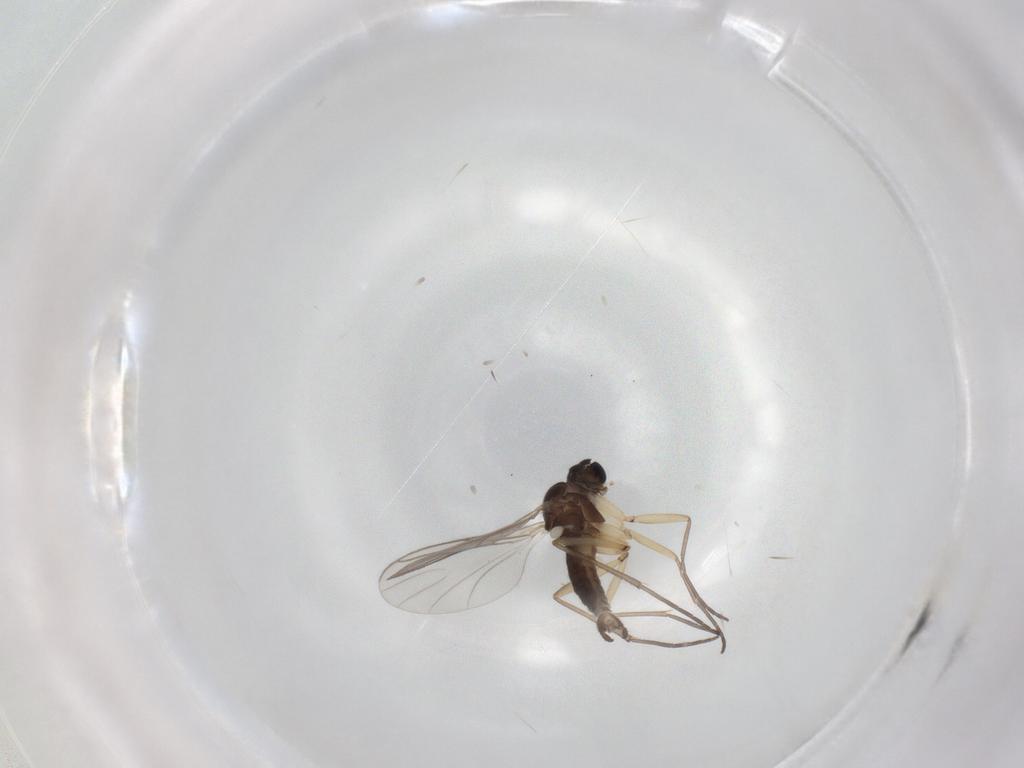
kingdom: Animalia
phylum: Arthropoda
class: Insecta
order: Diptera
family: Sciaridae
